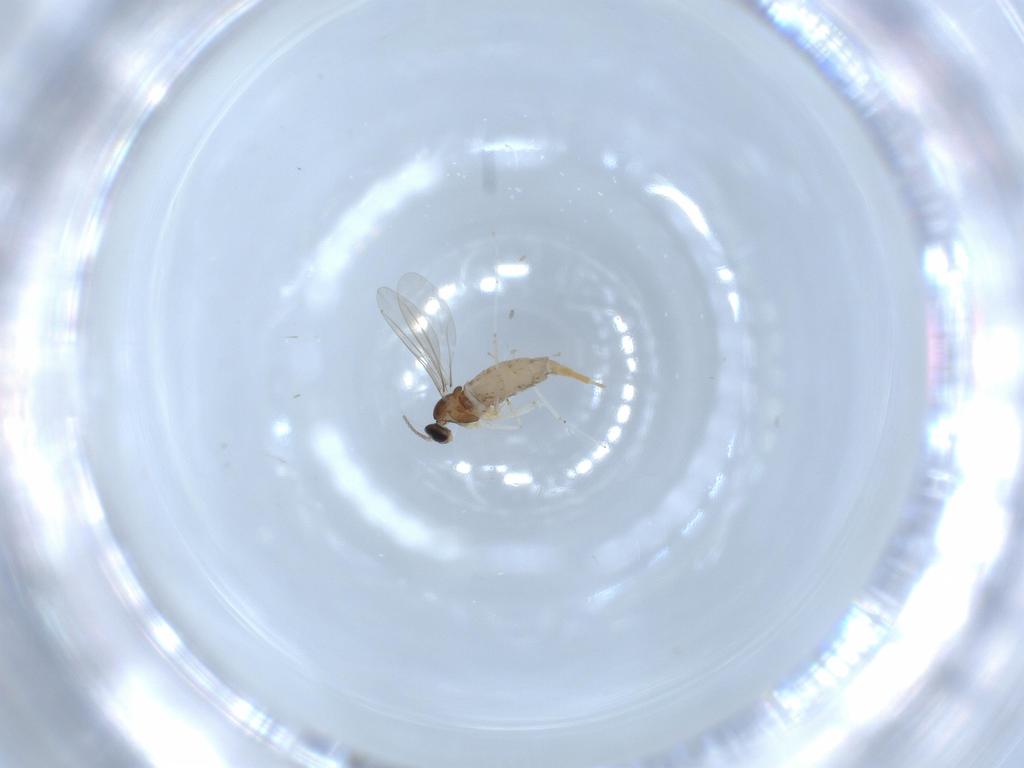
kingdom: Animalia
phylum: Arthropoda
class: Insecta
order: Diptera
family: Cecidomyiidae
